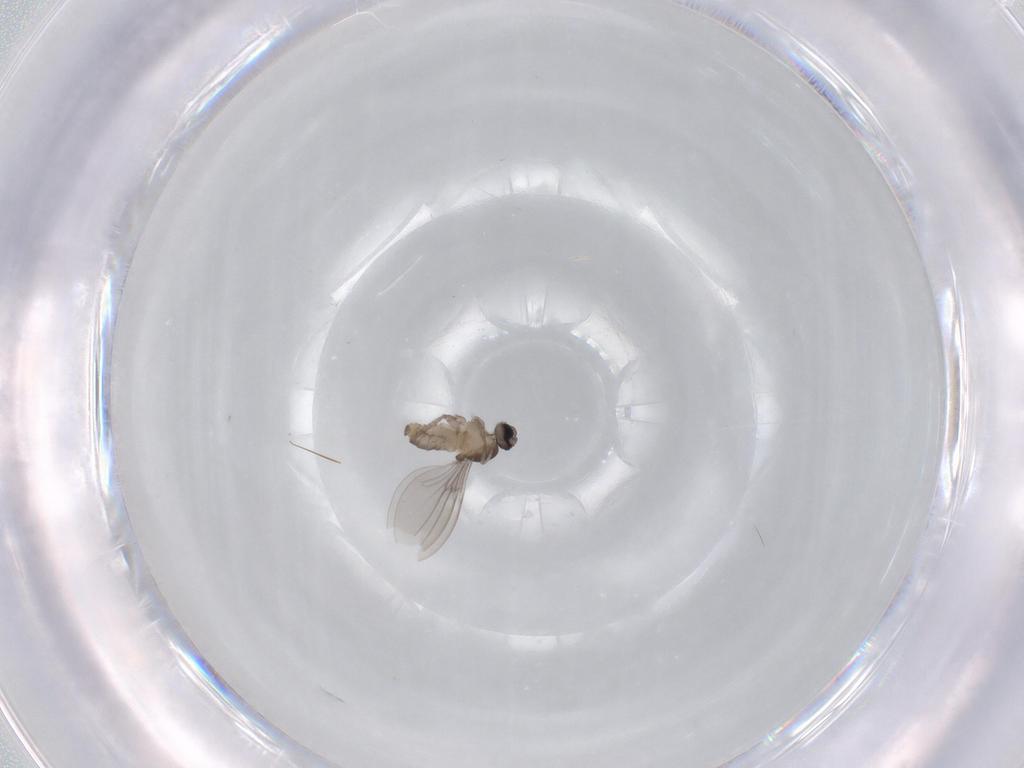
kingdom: Animalia
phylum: Arthropoda
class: Insecta
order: Diptera
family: Cecidomyiidae
